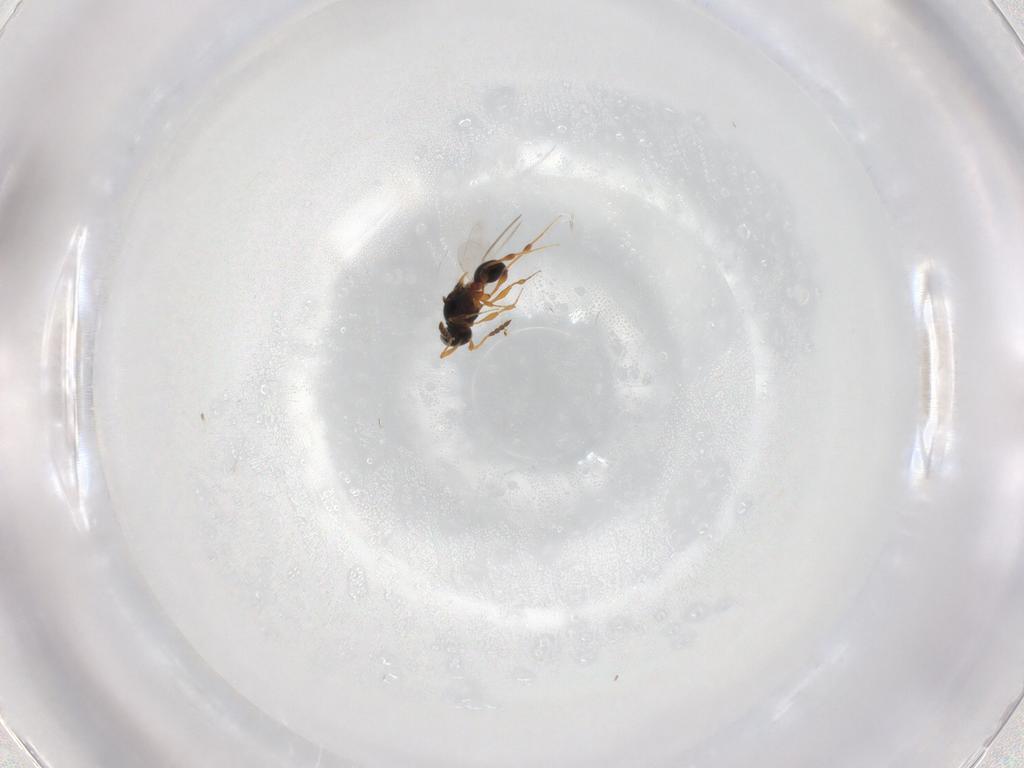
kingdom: Animalia
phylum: Arthropoda
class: Insecta
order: Hymenoptera
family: Platygastridae
